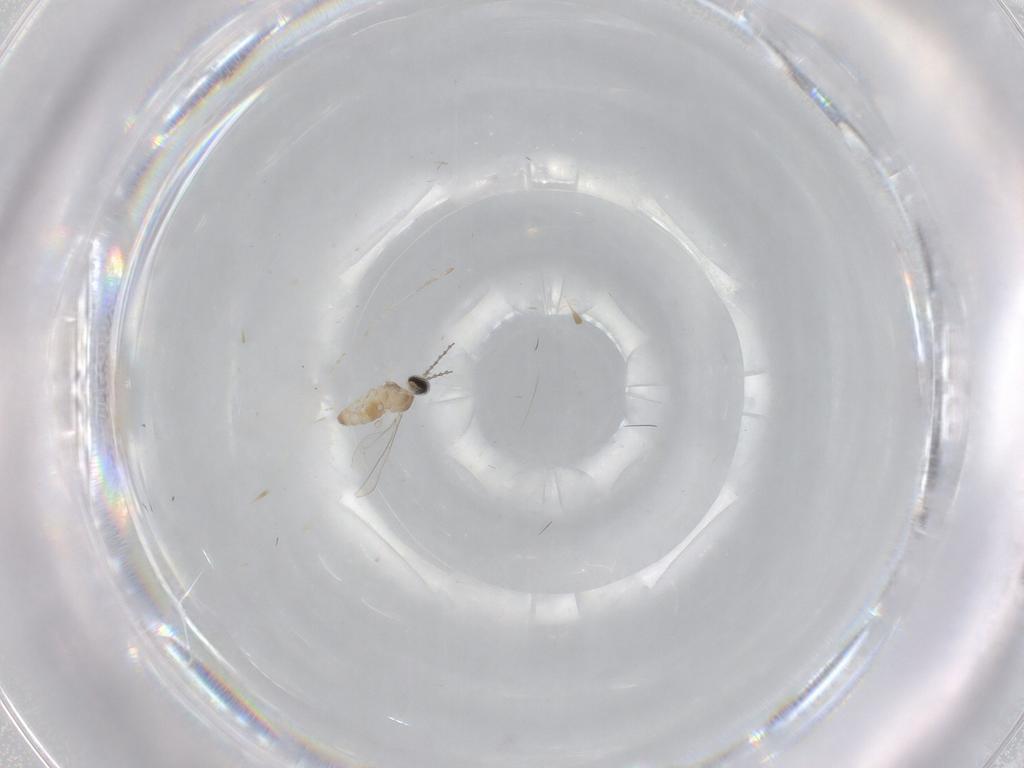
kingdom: Animalia
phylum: Arthropoda
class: Insecta
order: Diptera
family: Cecidomyiidae
